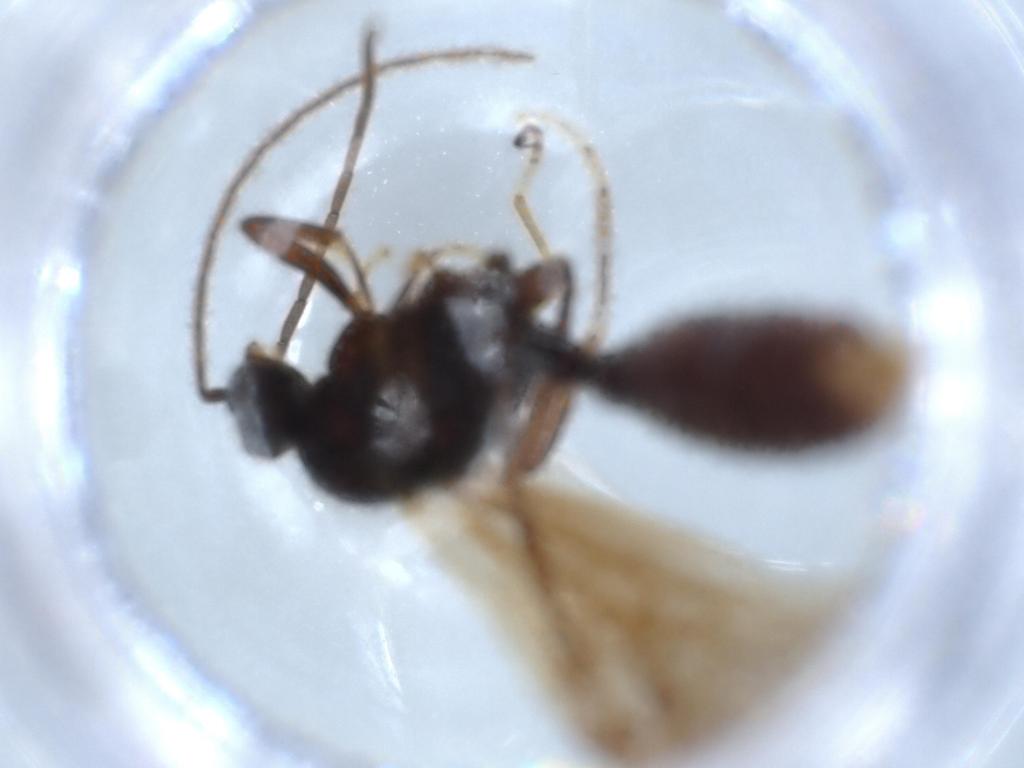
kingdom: Animalia
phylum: Arthropoda
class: Insecta
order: Hymenoptera
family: Formicidae
